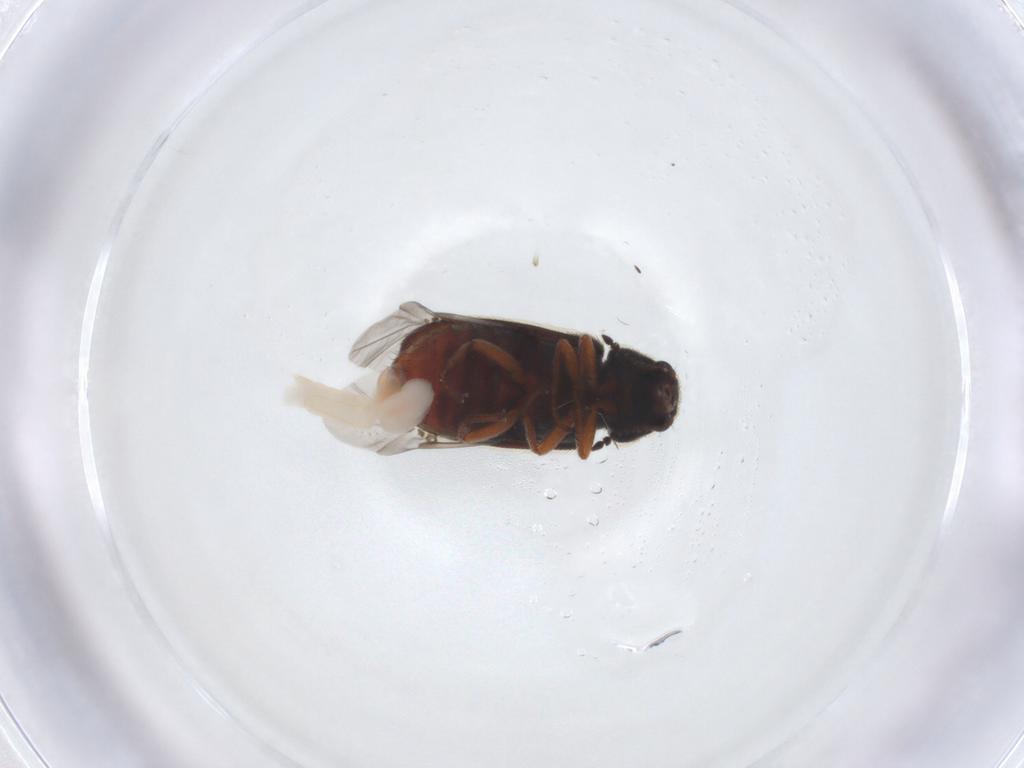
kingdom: Animalia
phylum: Arthropoda
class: Insecta
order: Coleoptera
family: Melyridae
